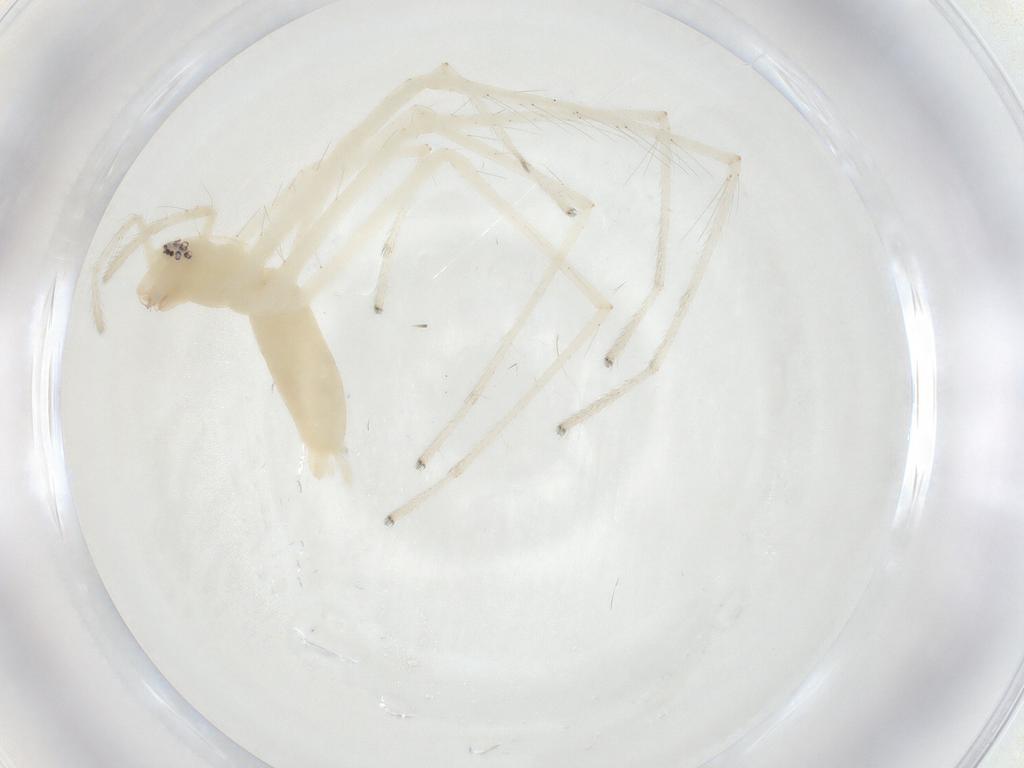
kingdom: Animalia
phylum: Arthropoda
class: Arachnida
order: Araneae
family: Anyphaenidae
